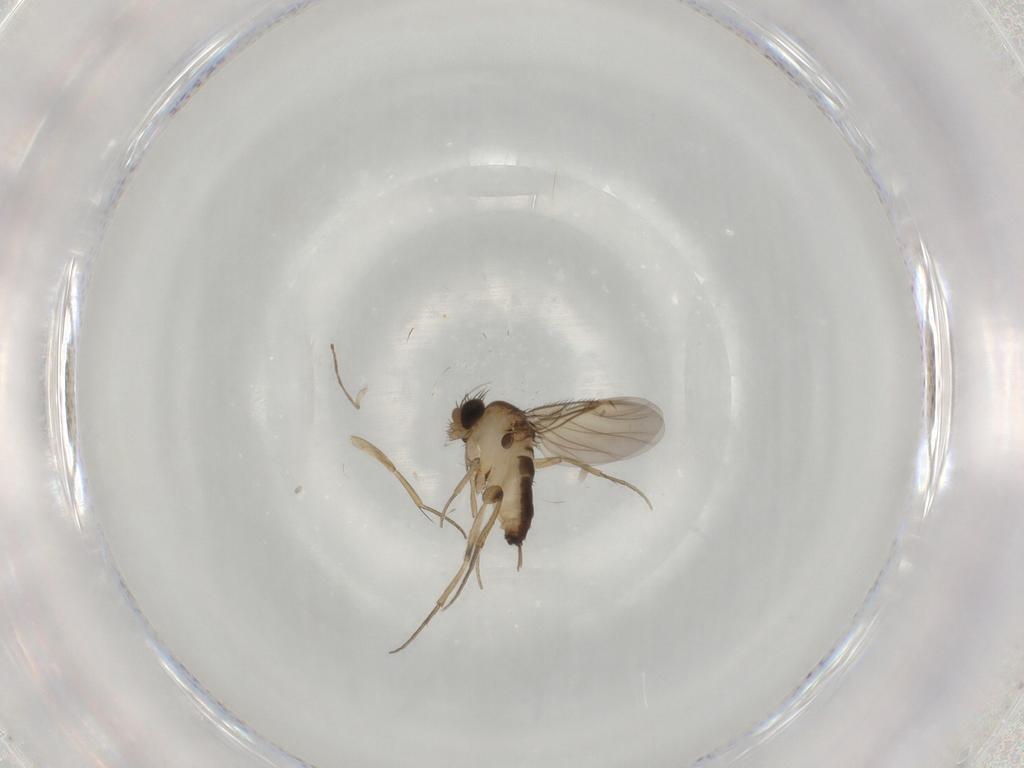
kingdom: Animalia
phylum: Arthropoda
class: Insecta
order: Diptera
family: Phoridae
